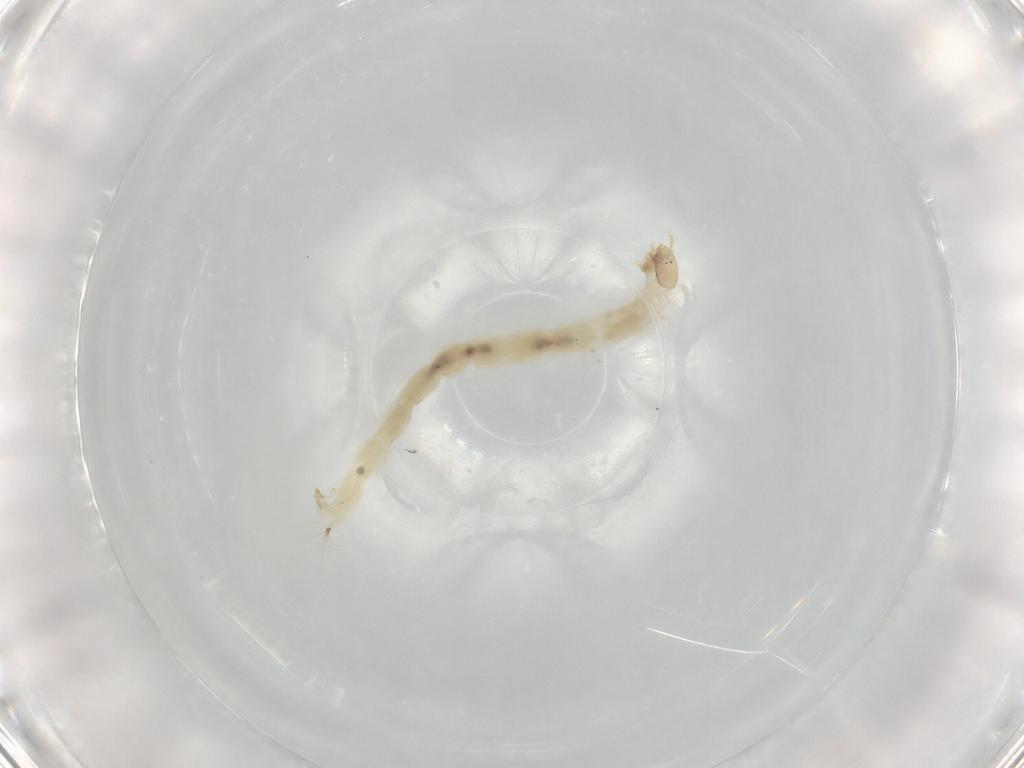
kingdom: Animalia
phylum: Arthropoda
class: Insecta
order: Diptera
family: Chironomidae
